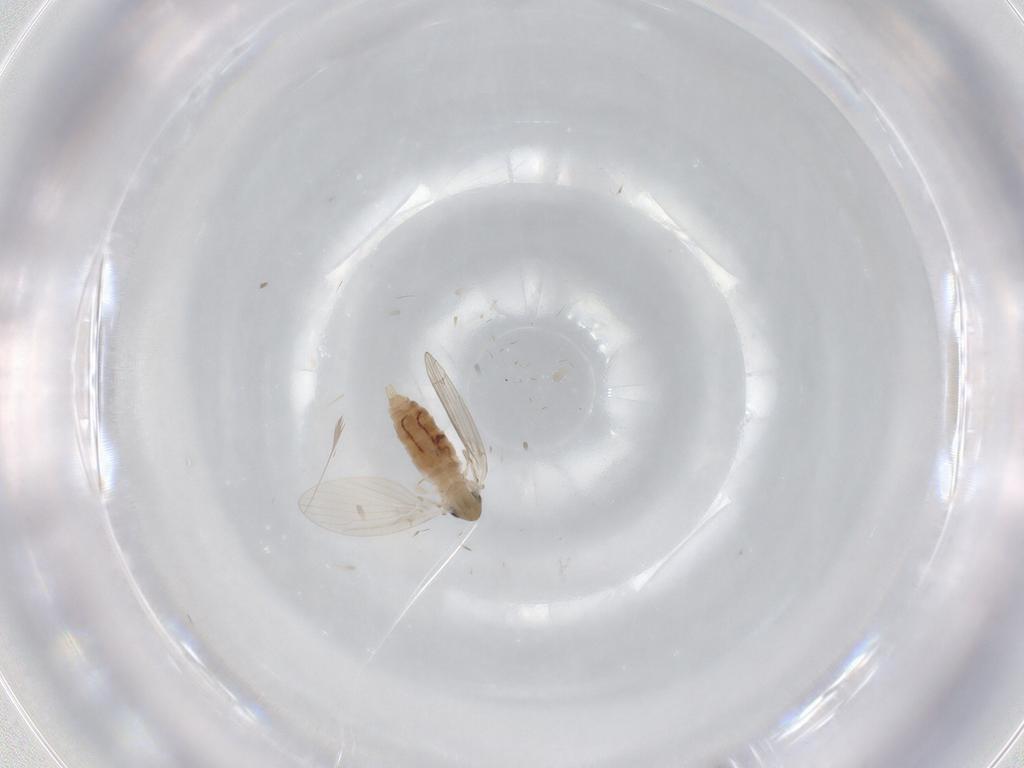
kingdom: Animalia
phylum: Arthropoda
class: Insecta
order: Diptera
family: Psychodidae
